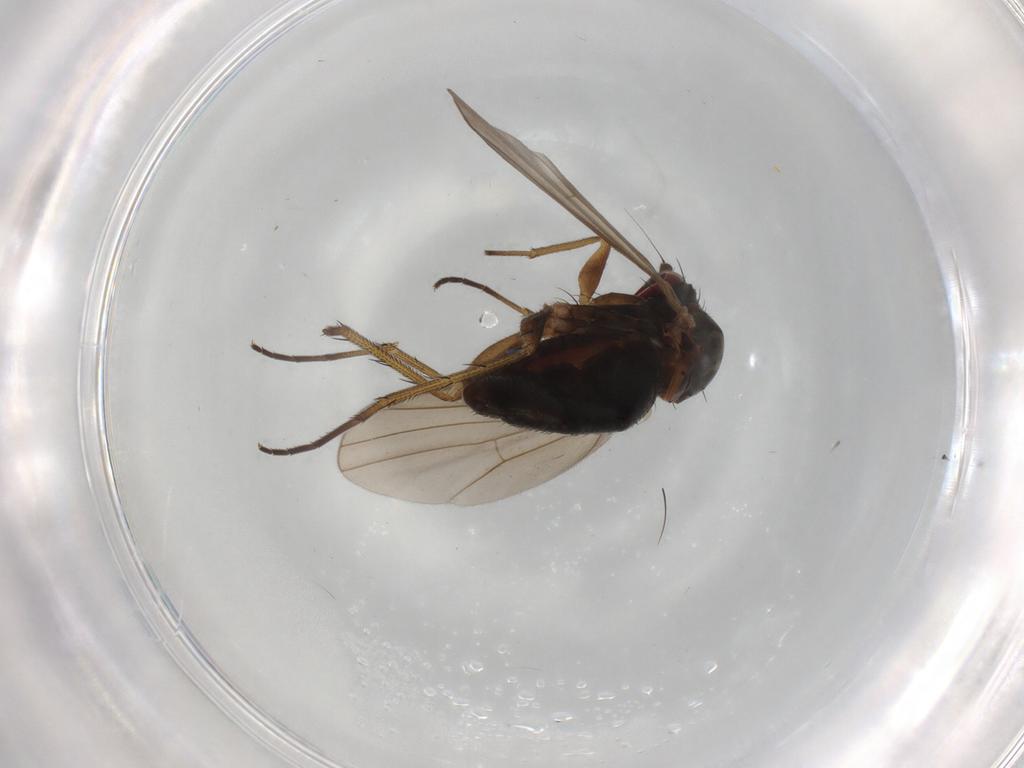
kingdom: Animalia
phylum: Arthropoda
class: Insecta
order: Diptera
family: Dolichopodidae
